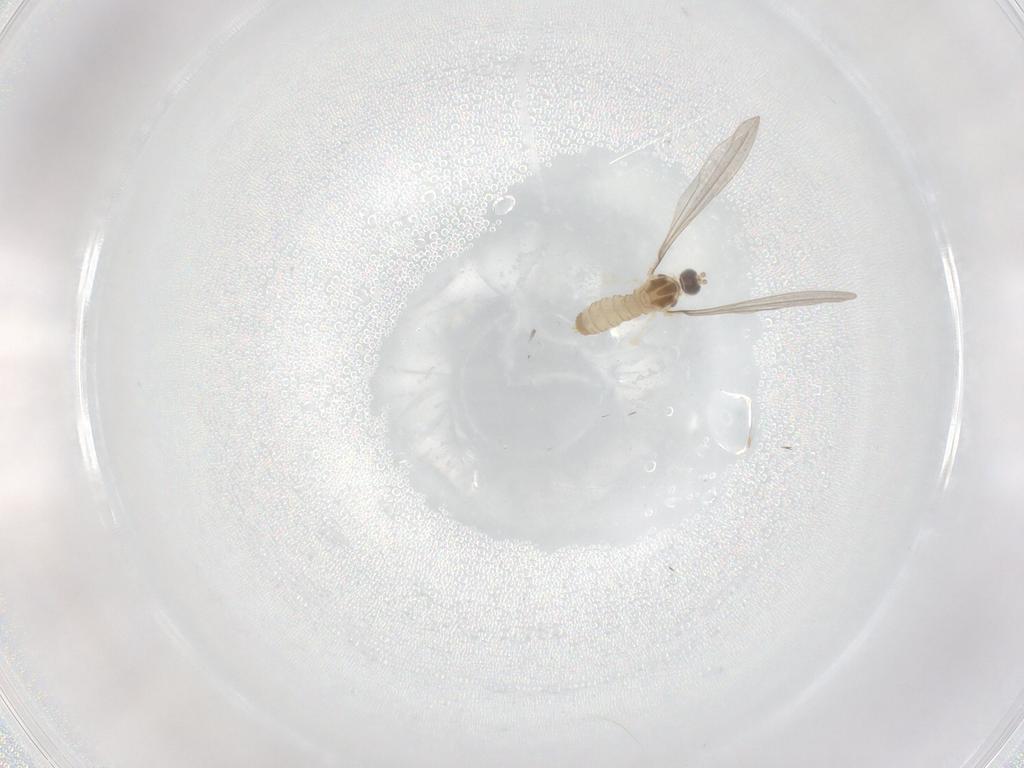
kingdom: Animalia
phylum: Arthropoda
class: Insecta
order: Diptera
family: Cecidomyiidae
